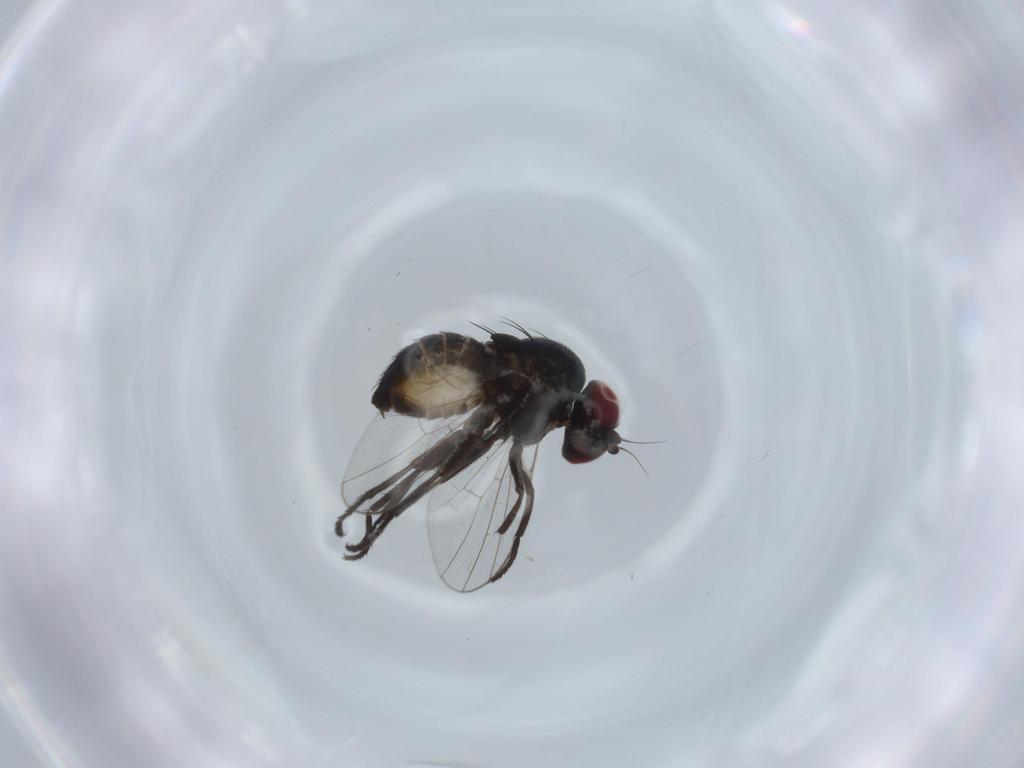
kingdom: Animalia
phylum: Arthropoda
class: Insecta
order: Diptera
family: Agromyzidae
